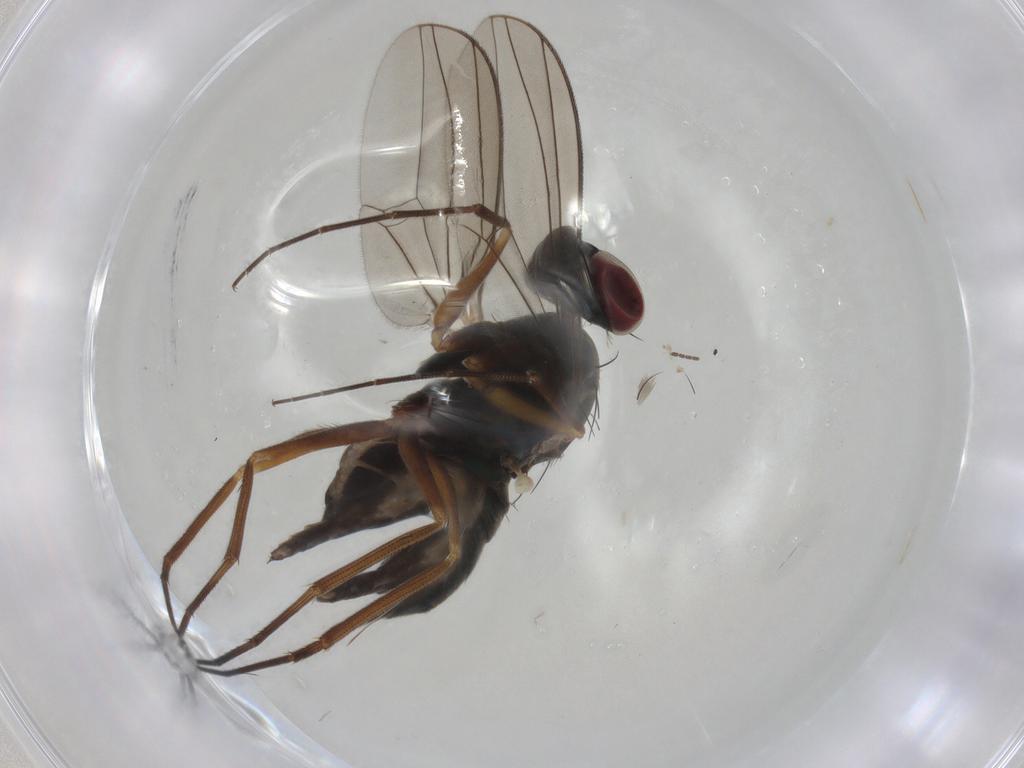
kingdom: Animalia
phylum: Arthropoda
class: Insecta
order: Diptera
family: Dolichopodidae
